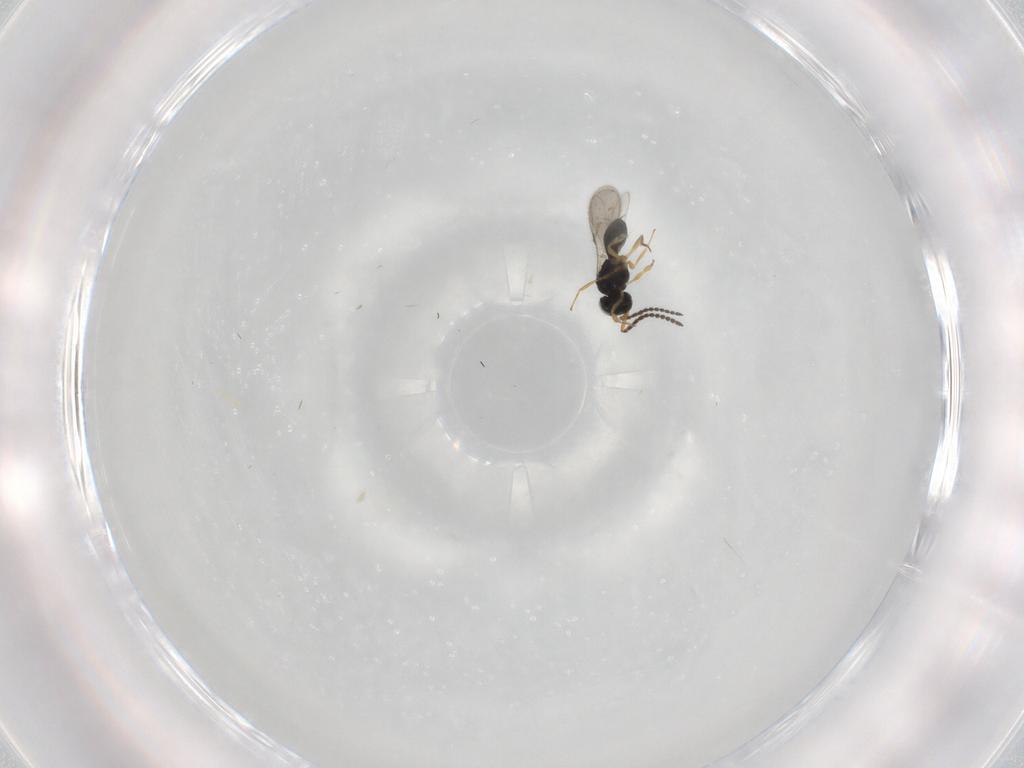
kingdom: Animalia
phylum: Arthropoda
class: Insecta
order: Hymenoptera
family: Scelionidae
